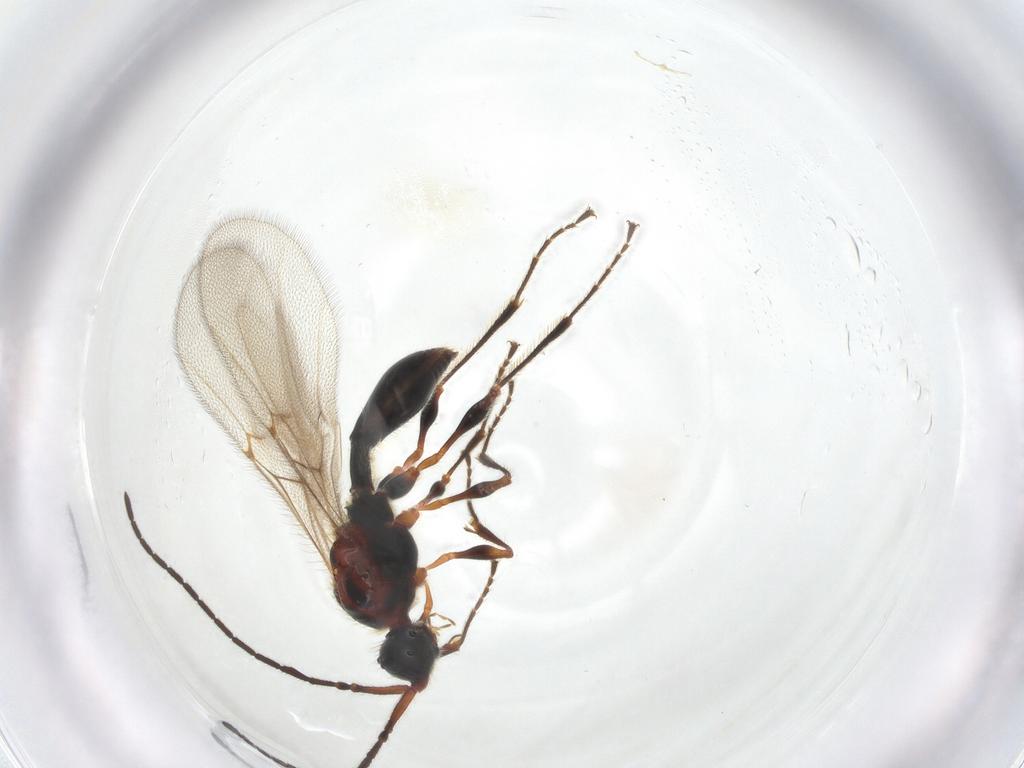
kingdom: Animalia
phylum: Arthropoda
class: Insecta
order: Hymenoptera
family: Diapriidae
